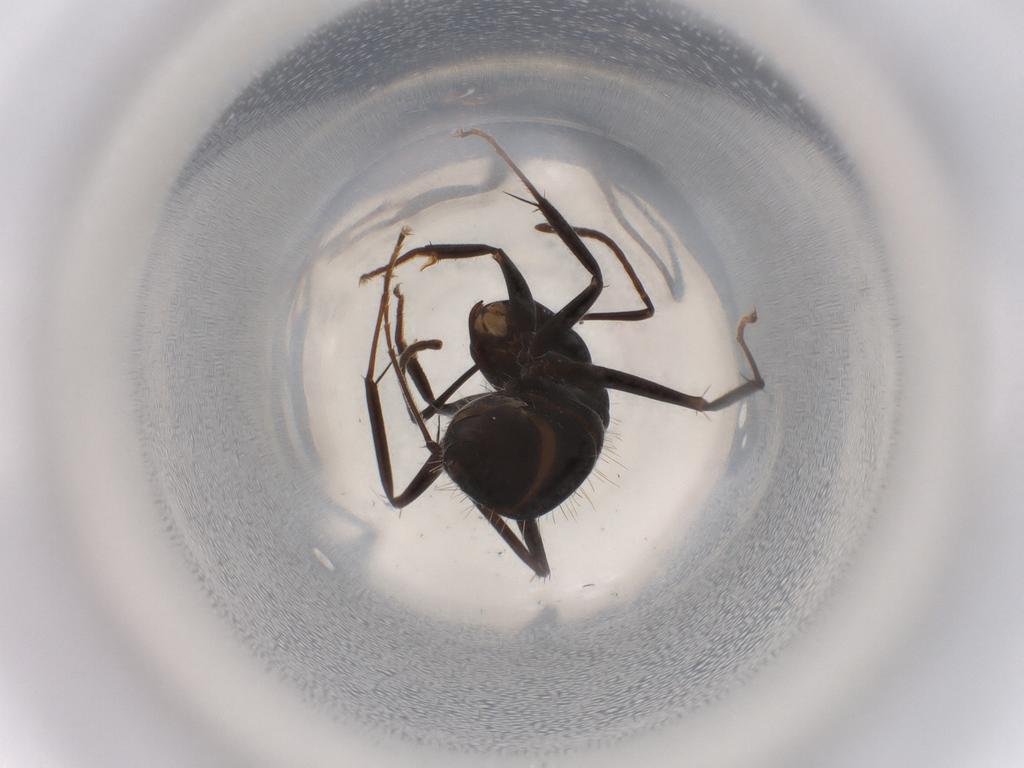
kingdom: Animalia
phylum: Arthropoda
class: Insecta
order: Hymenoptera
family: Formicidae
